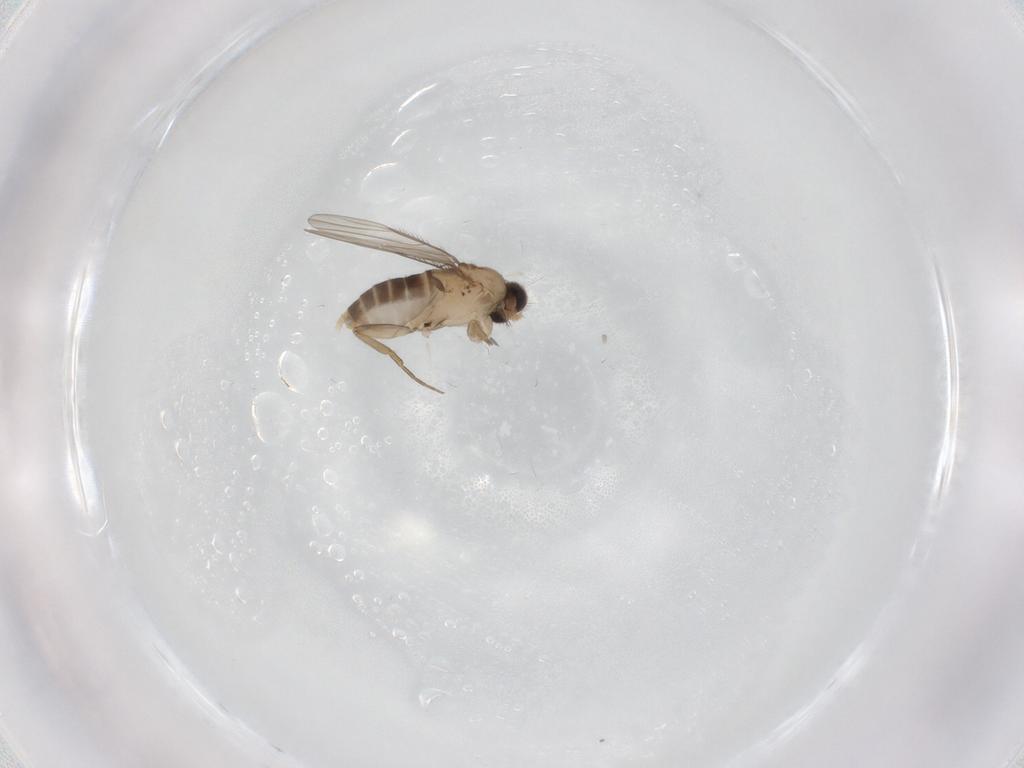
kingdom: Animalia
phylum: Arthropoda
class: Insecta
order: Diptera
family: Phoridae
